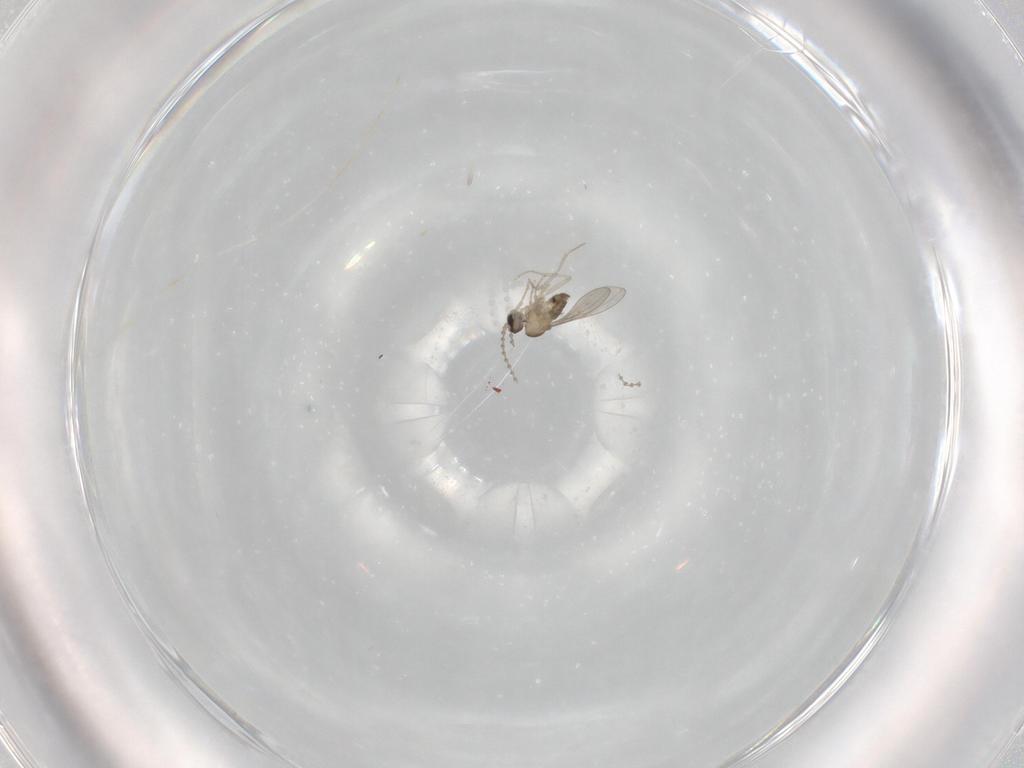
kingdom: Animalia
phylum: Arthropoda
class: Insecta
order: Diptera
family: Cecidomyiidae
